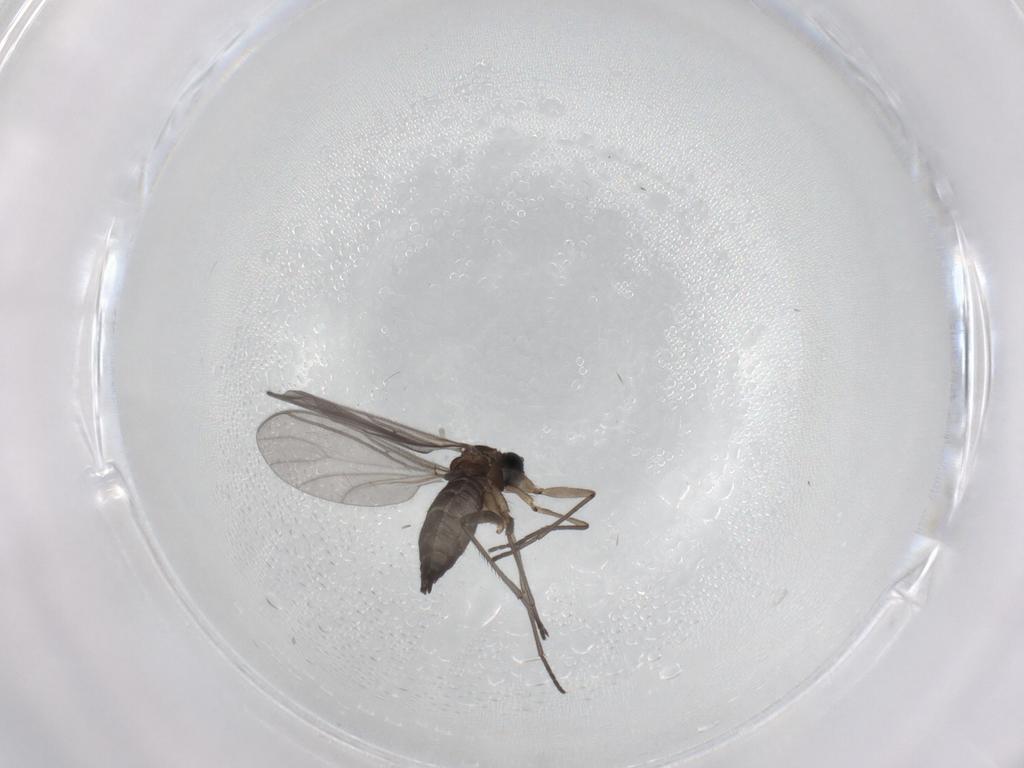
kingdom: Animalia
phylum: Arthropoda
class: Insecta
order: Diptera
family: Sciaridae
